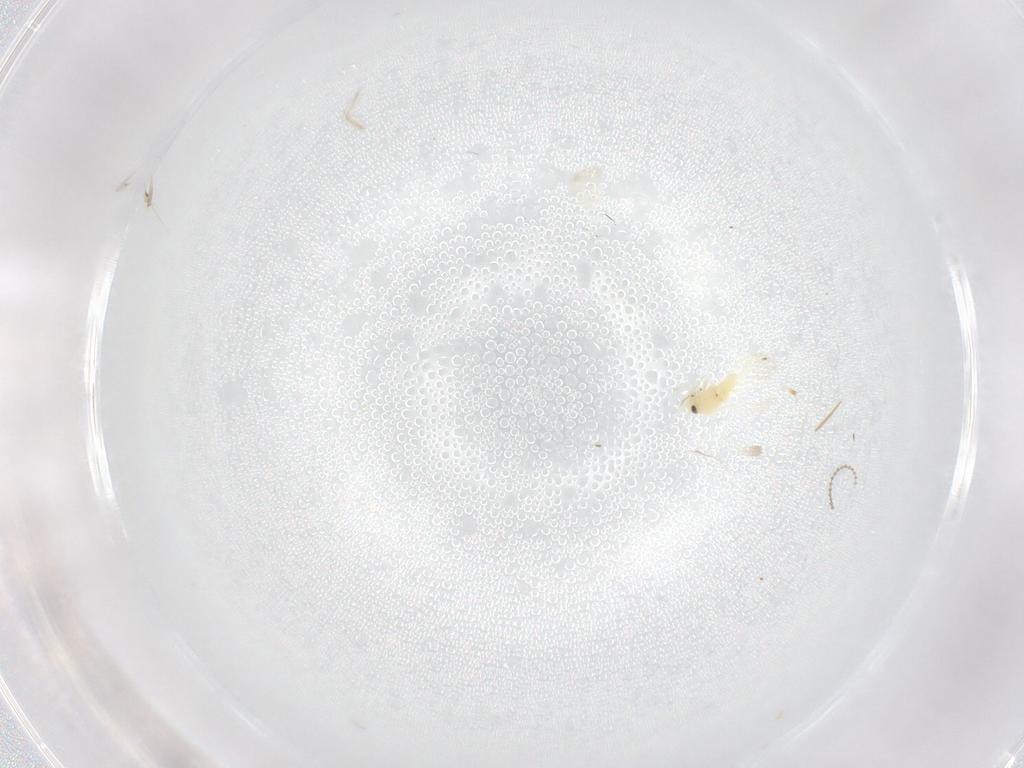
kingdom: Animalia
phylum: Arthropoda
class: Insecta
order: Hemiptera
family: Aleyrodidae
